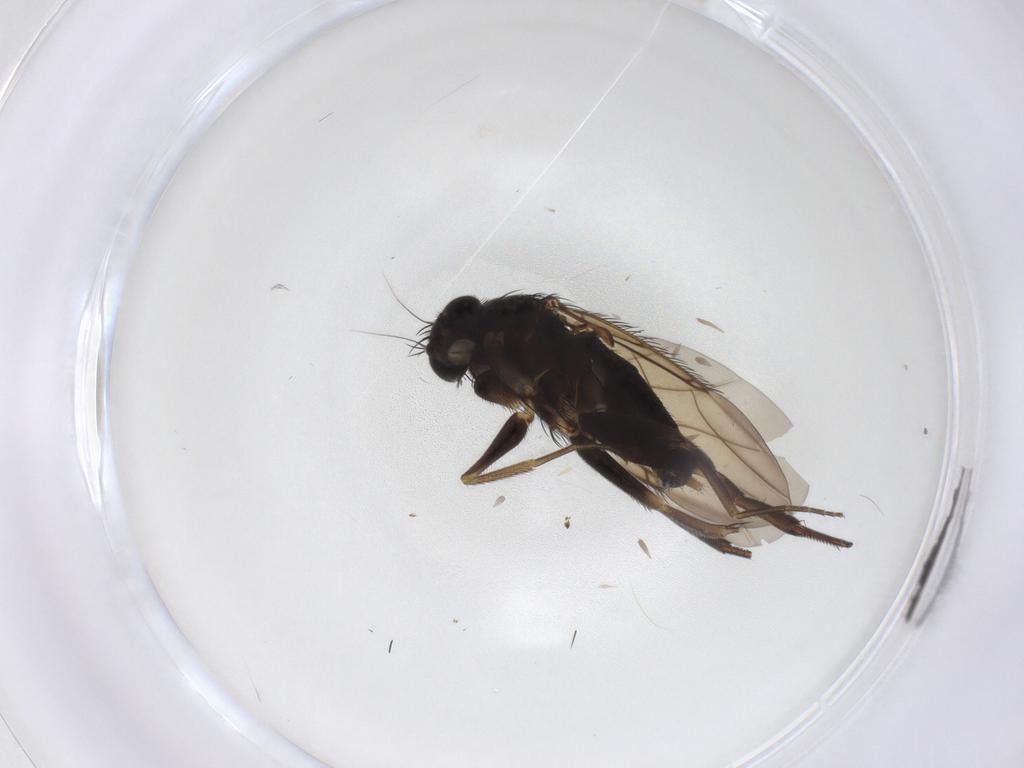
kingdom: Animalia
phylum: Arthropoda
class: Insecta
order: Diptera
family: Phoridae
